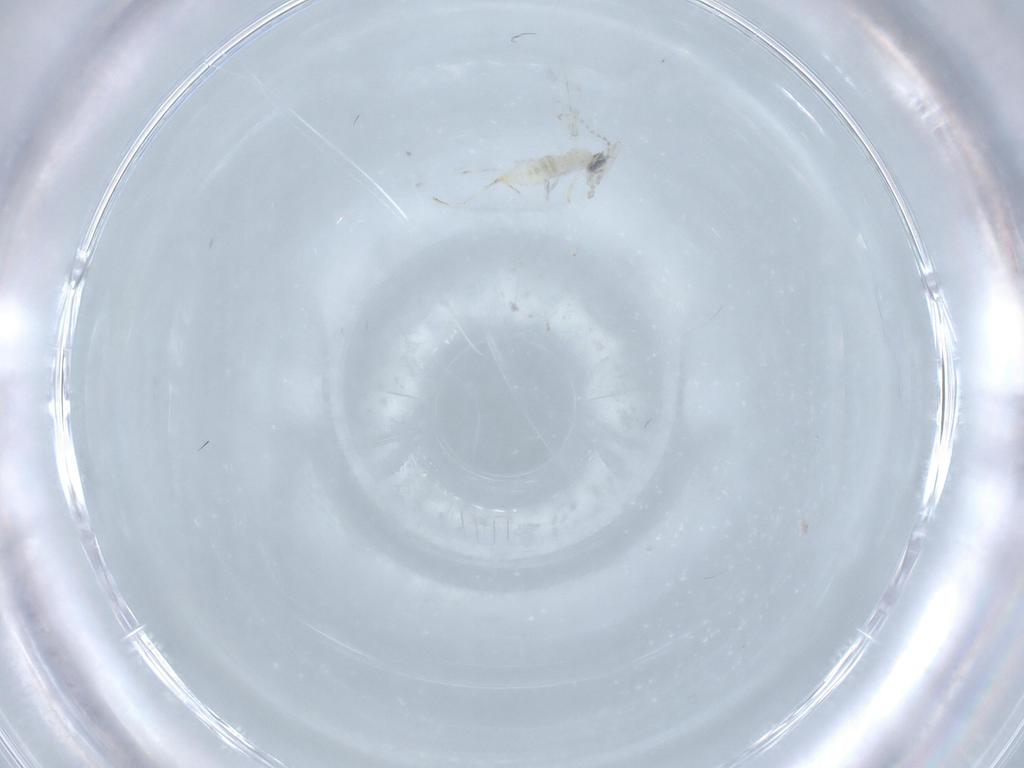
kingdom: Animalia
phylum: Arthropoda
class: Insecta
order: Diptera
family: Cecidomyiidae
